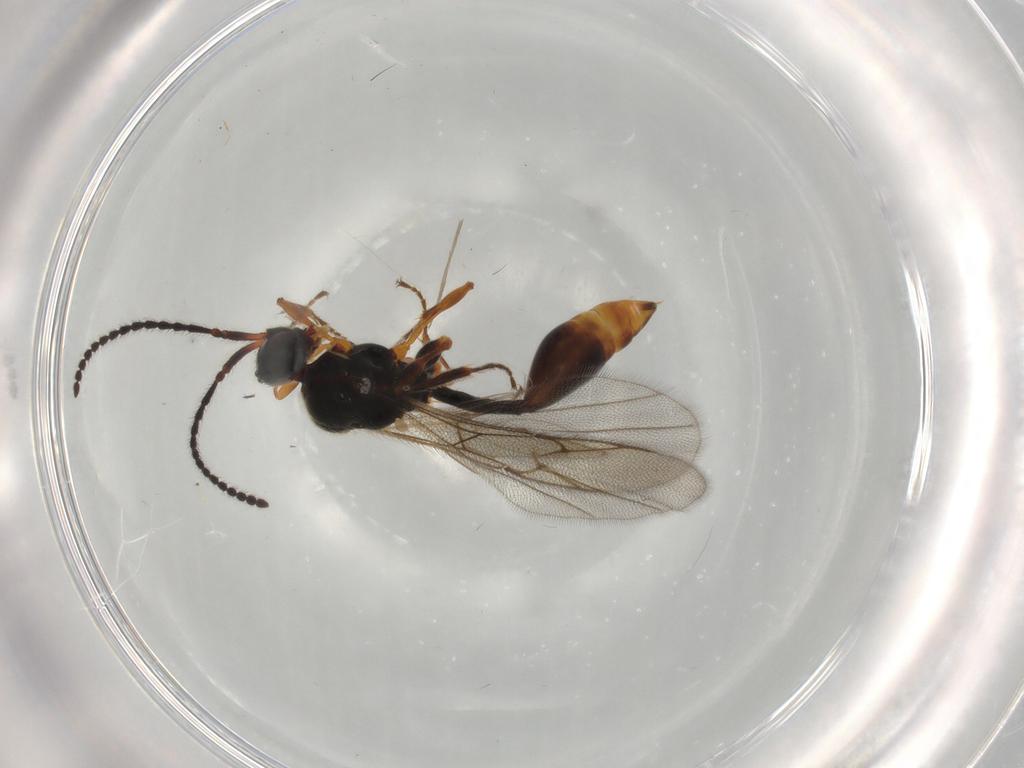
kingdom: Animalia
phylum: Arthropoda
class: Insecta
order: Hymenoptera
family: Diapriidae
